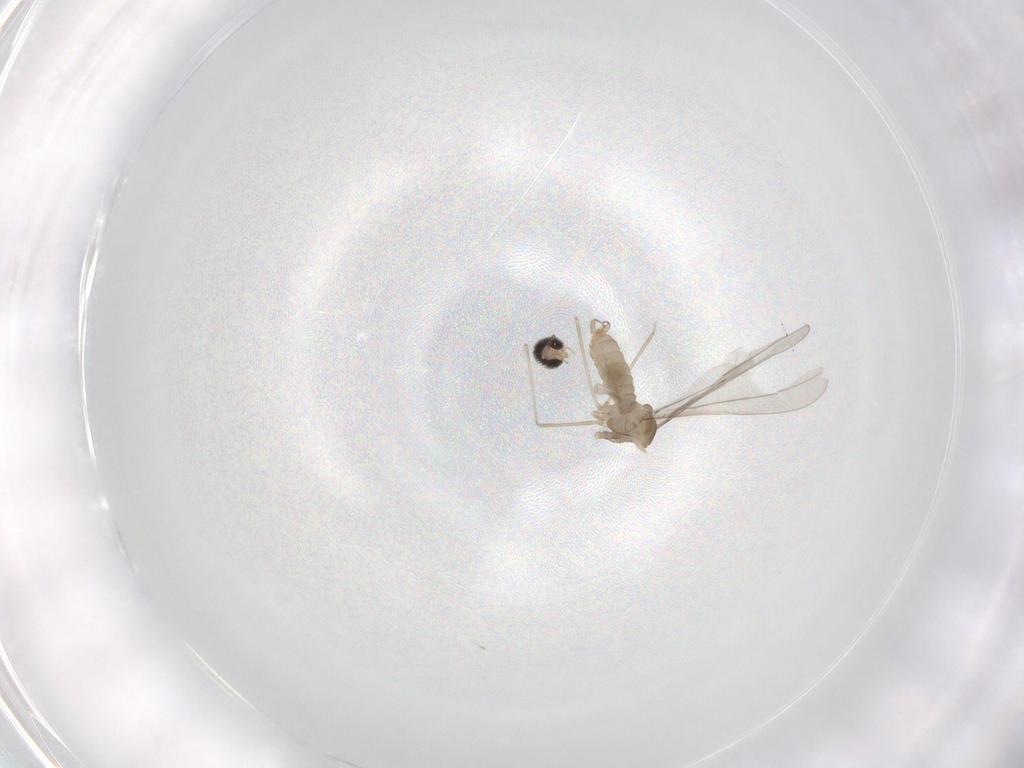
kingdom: Animalia
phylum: Arthropoda
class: Insecta
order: Diptera
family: Cecidomyiidae
